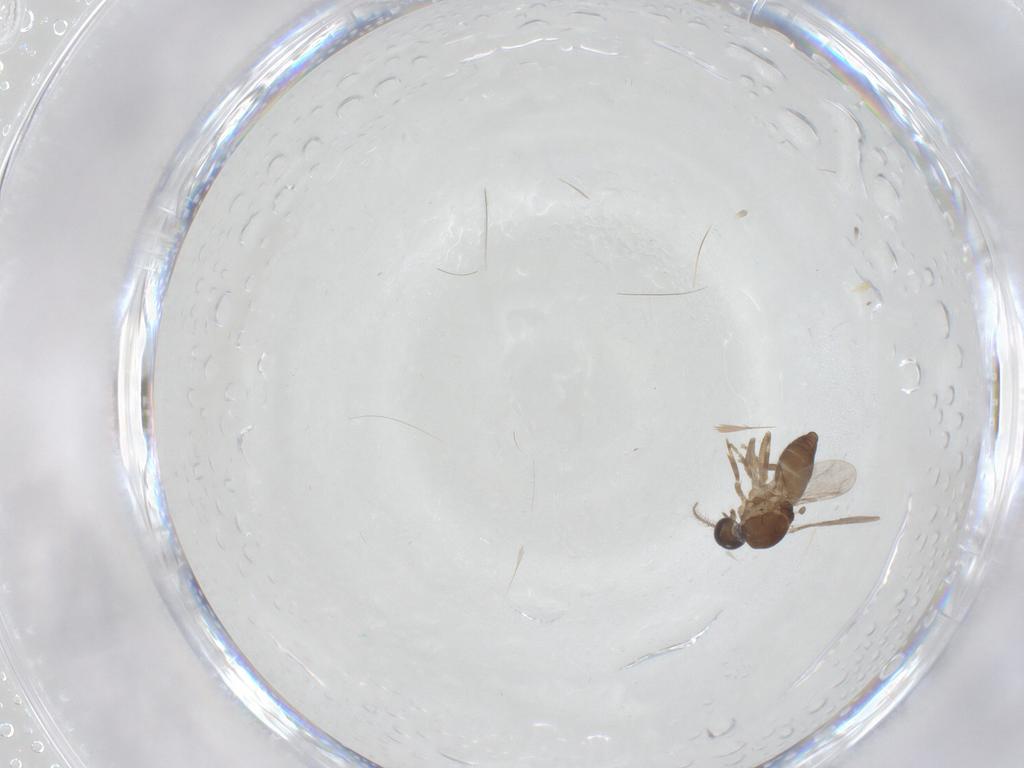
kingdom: Animalia
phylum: Arthropoda
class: Insecta
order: Diptera
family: Ceratopogonidae
